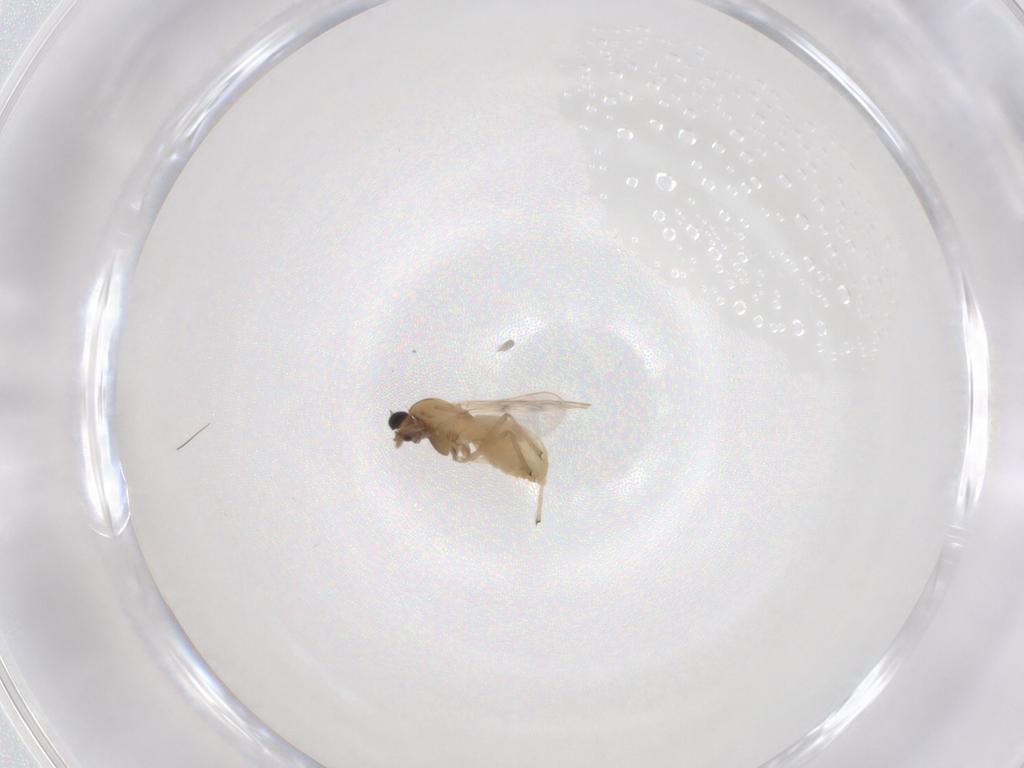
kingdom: Animalia
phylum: Arthropoda
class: Insecta
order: Diptera
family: Chironomidae
